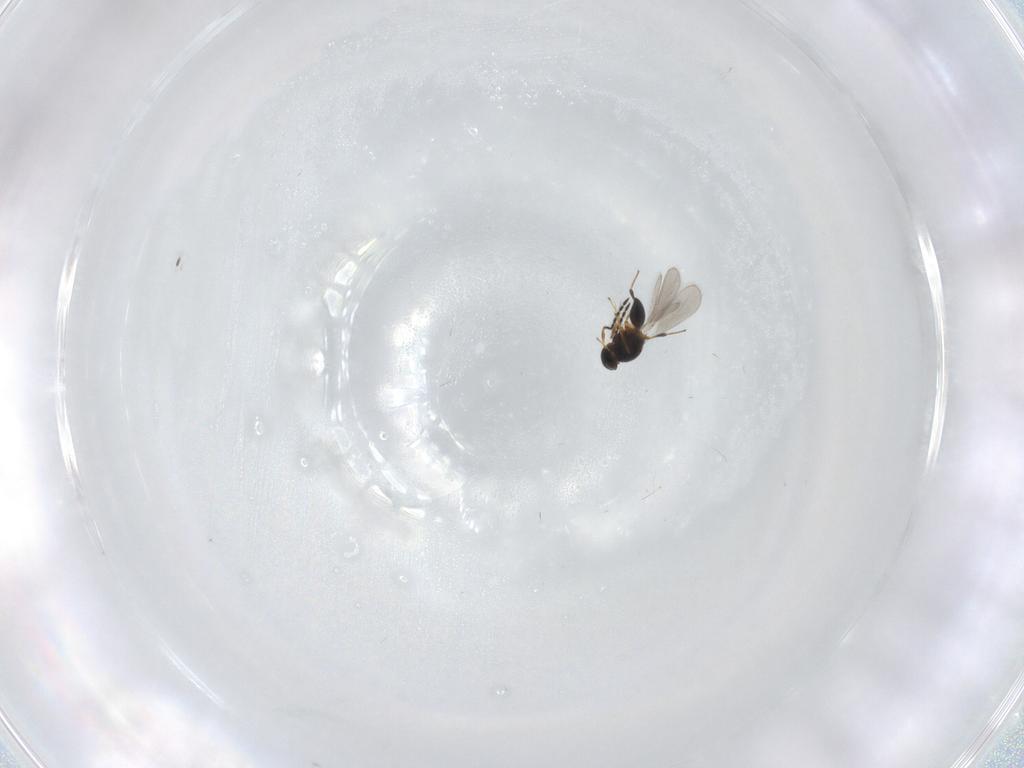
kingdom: Animalia
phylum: Arthropoda
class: Insecta
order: Hymenoptera
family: Platygastridae
